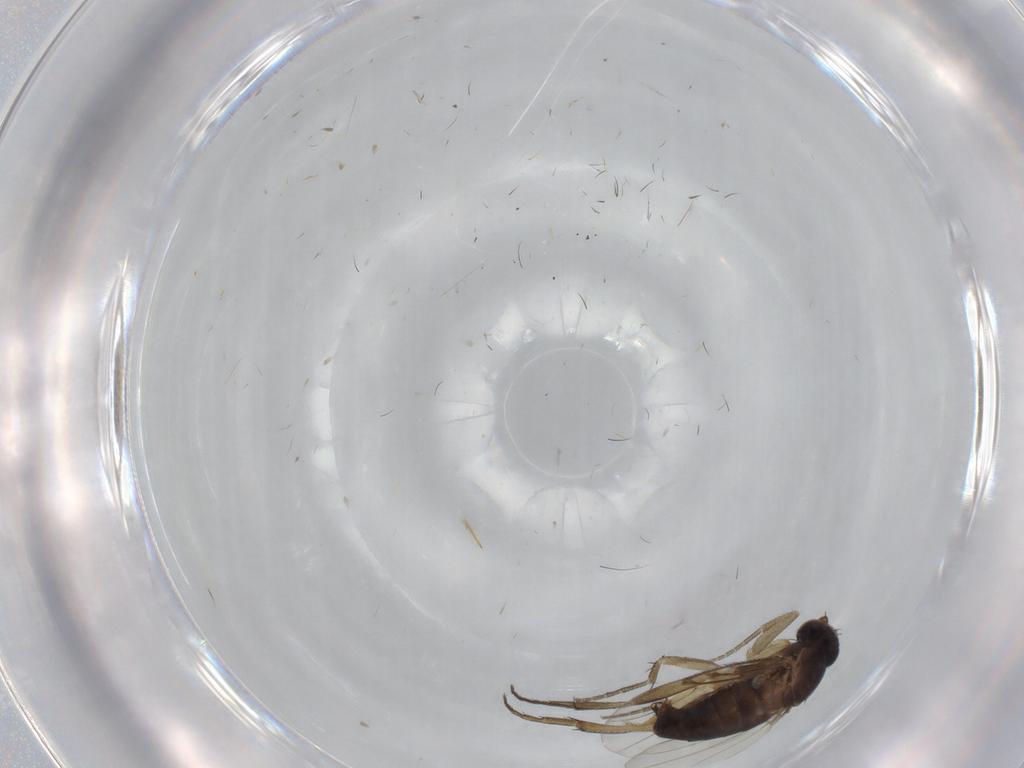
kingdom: Animalia
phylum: Arthropoda
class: Insecta
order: Diptera
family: Phoridae
